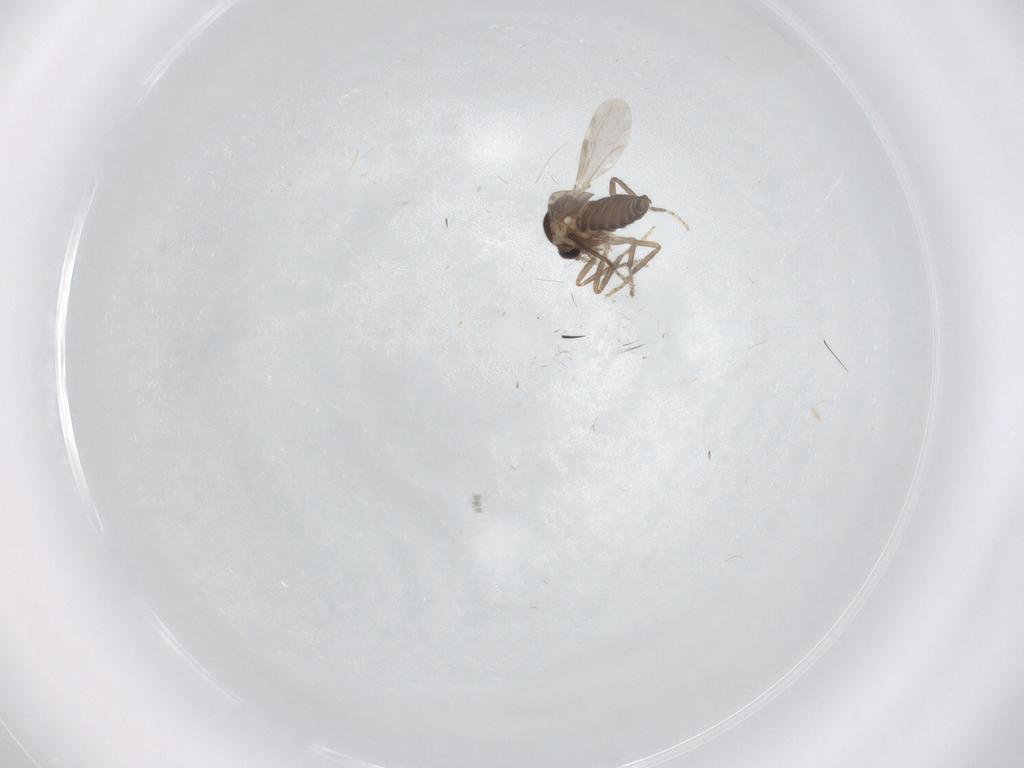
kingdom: Animalia
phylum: Arthropoda
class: Insecta
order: Diptera
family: Ceratopogonidae
